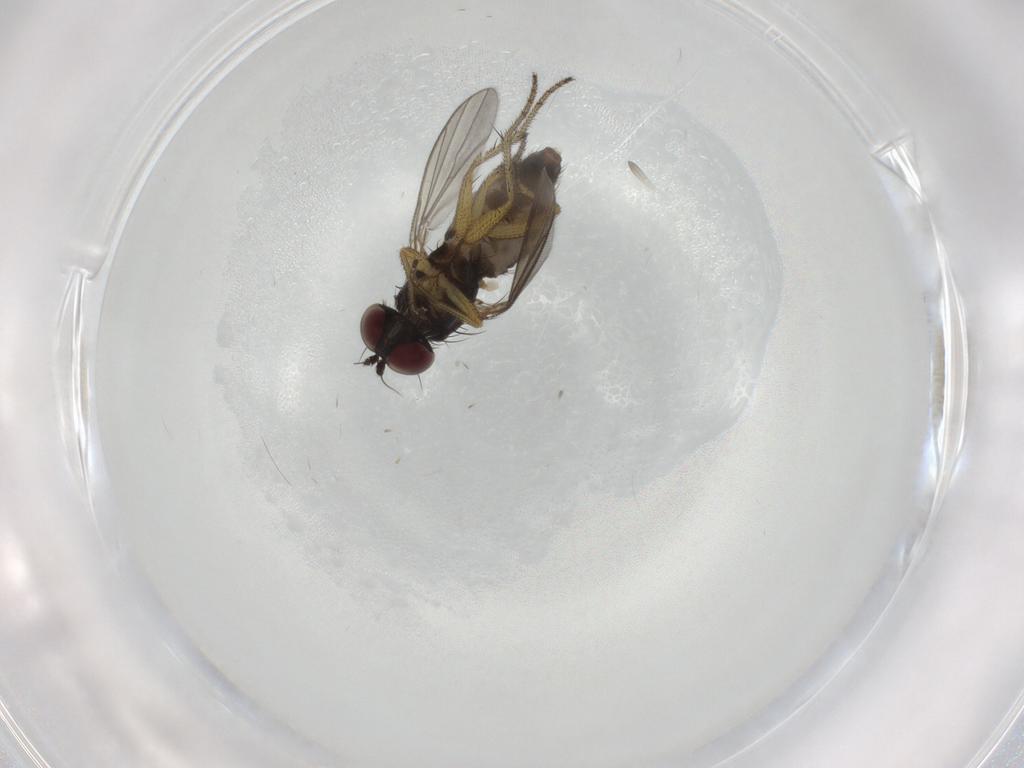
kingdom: Animalia
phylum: Arthropoda
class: Insecta
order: Diptera
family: Chironomidae
